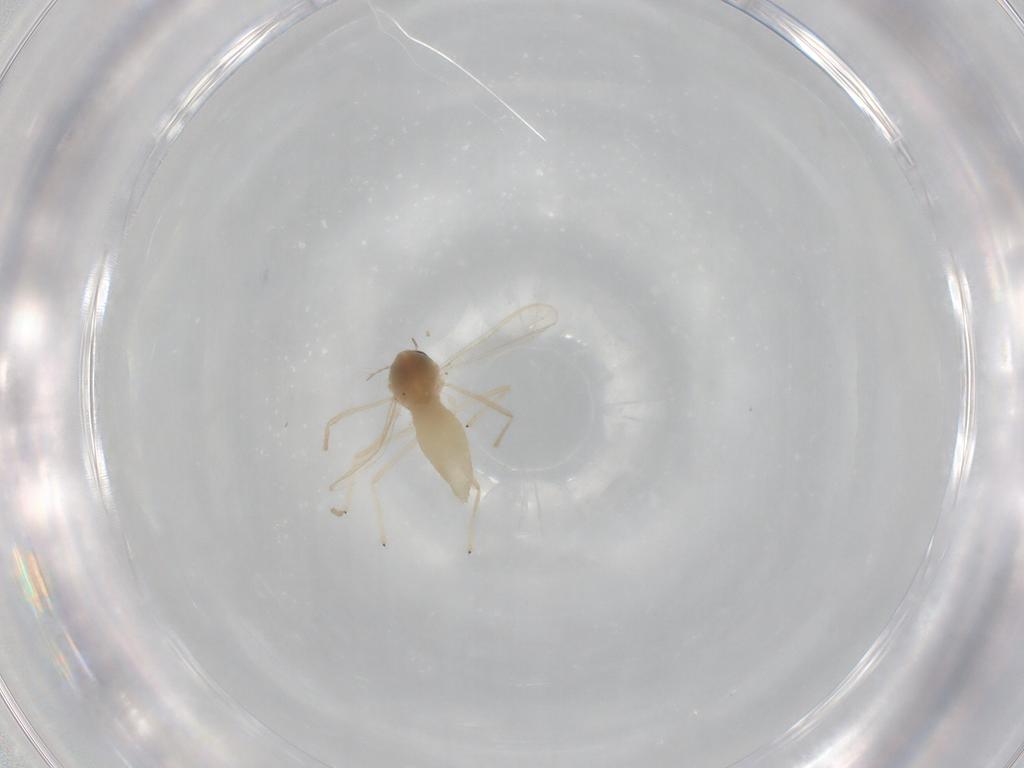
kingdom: Animalia
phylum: Arthropoda
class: Insecta
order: Diptera
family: Chironomidae
